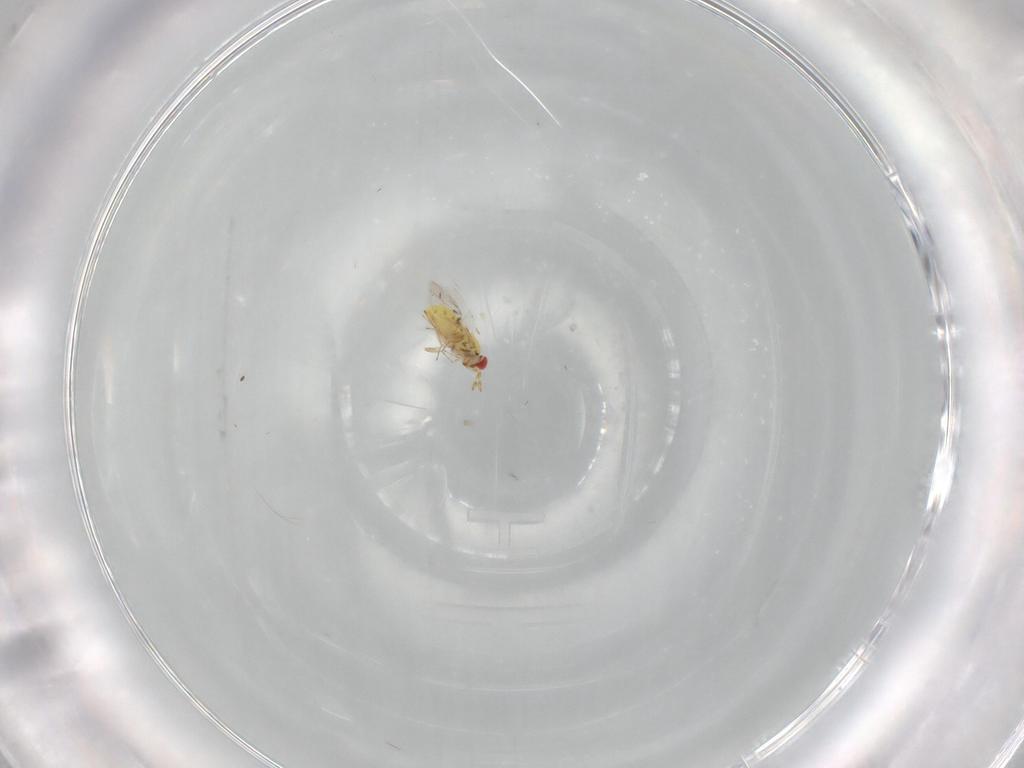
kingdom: Animalia
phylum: Arthropoda
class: Insecta
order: Hymenoptera
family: Trichogrammatidae
